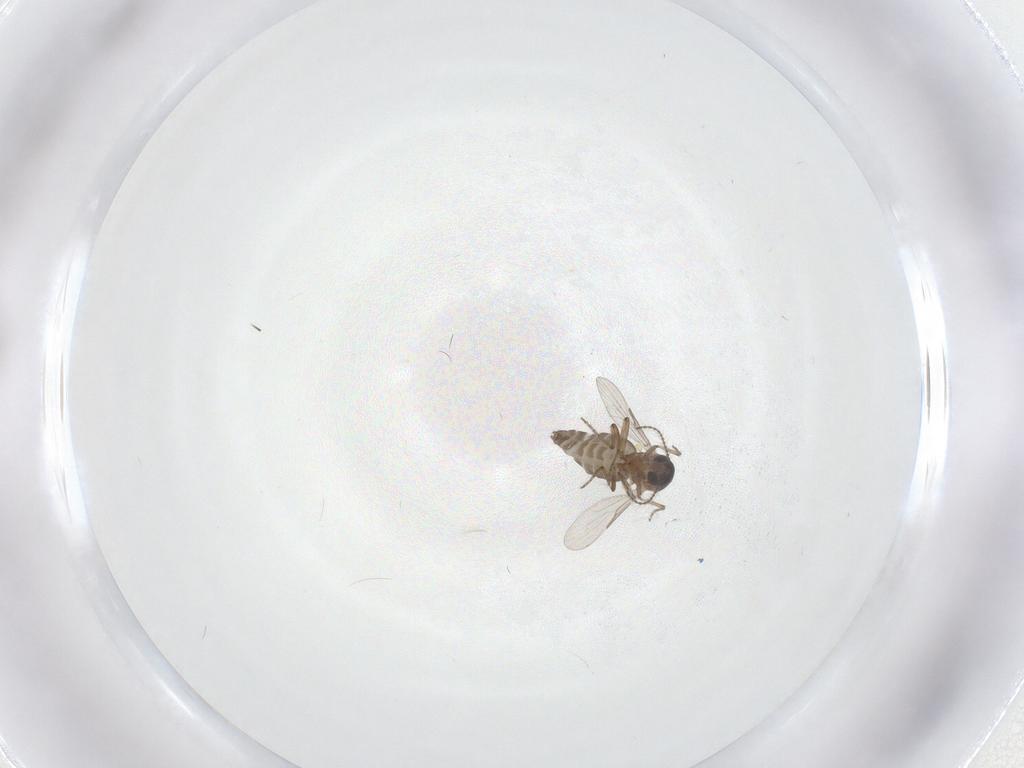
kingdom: Animalia
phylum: Arthropoda
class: Insecta
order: Diptera
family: Ceratopogonidae
